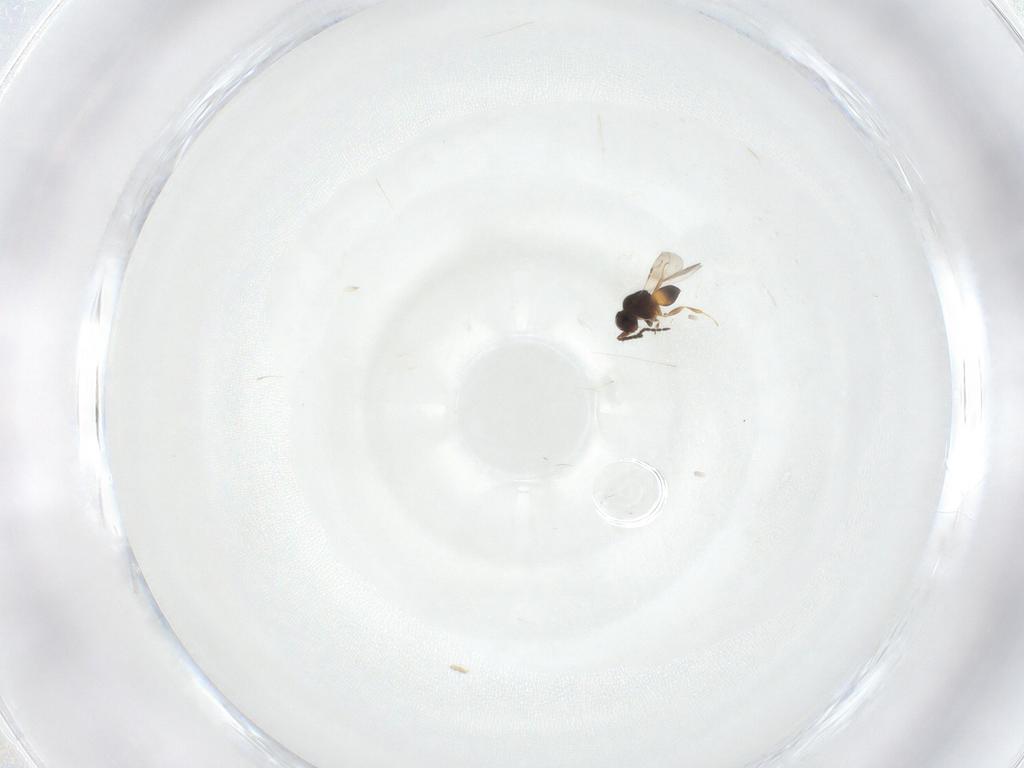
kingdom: Animalia
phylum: Arthropoda
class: Insecta
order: Hymenoptera
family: Ceraphronidae
